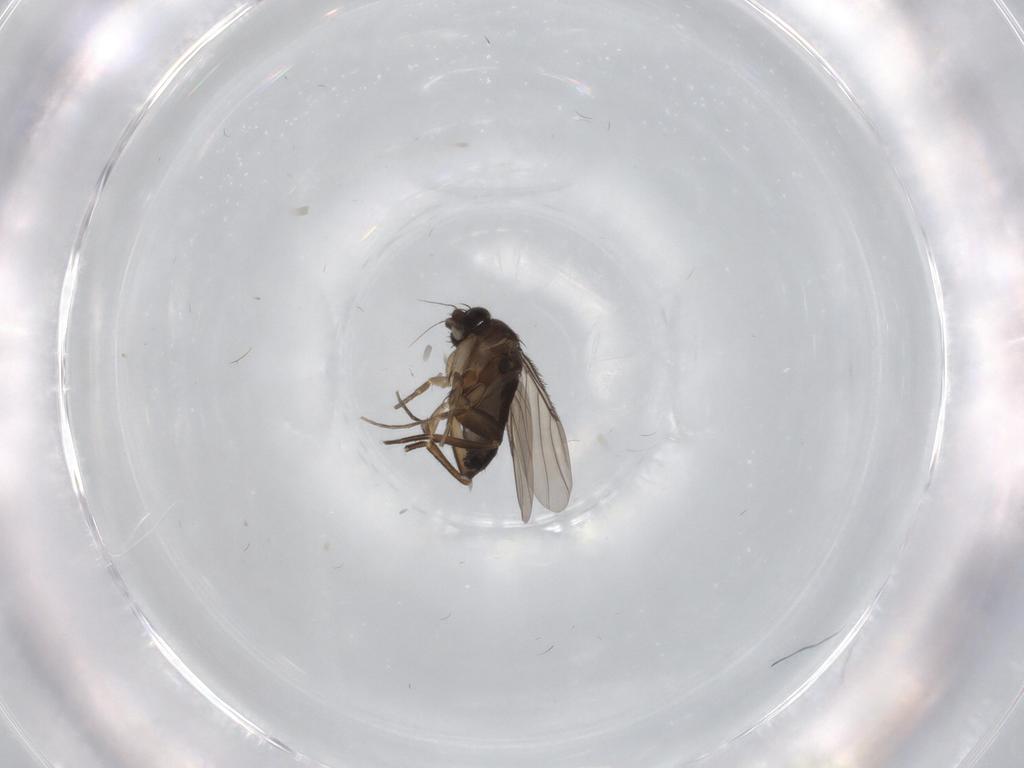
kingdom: Animalia
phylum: Arthropoda
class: Insecta
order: Diptera
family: Phoridae
